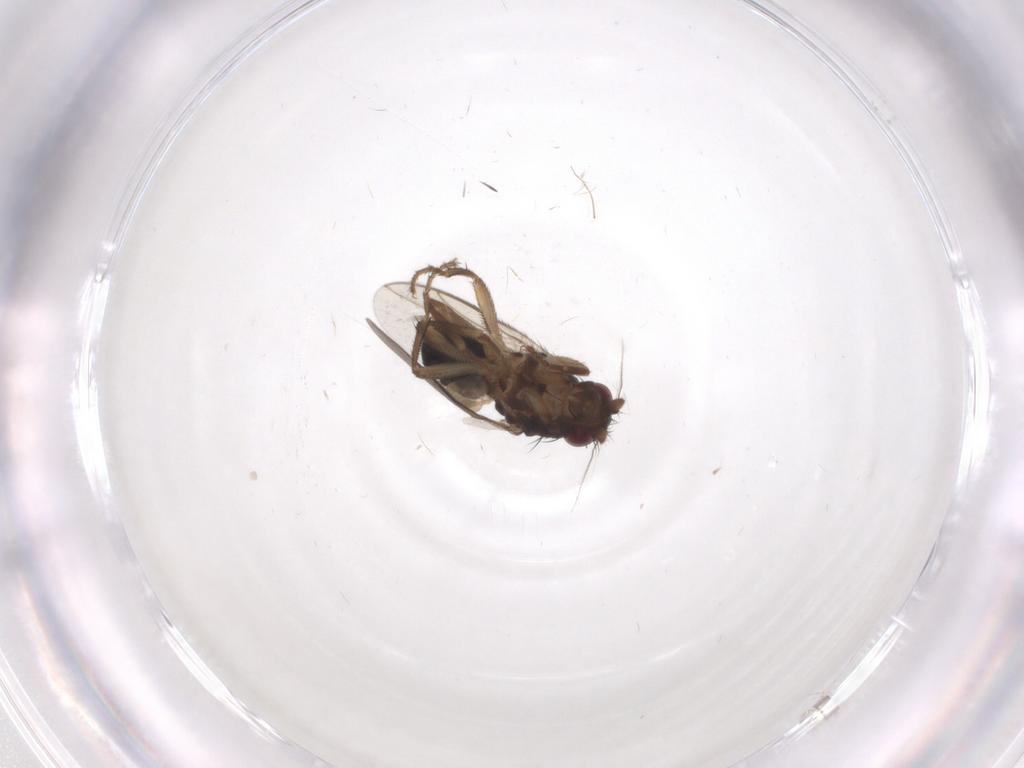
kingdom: Animalia
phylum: Arthropoda
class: Insecta
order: Diptera
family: Sphaeroceridae
